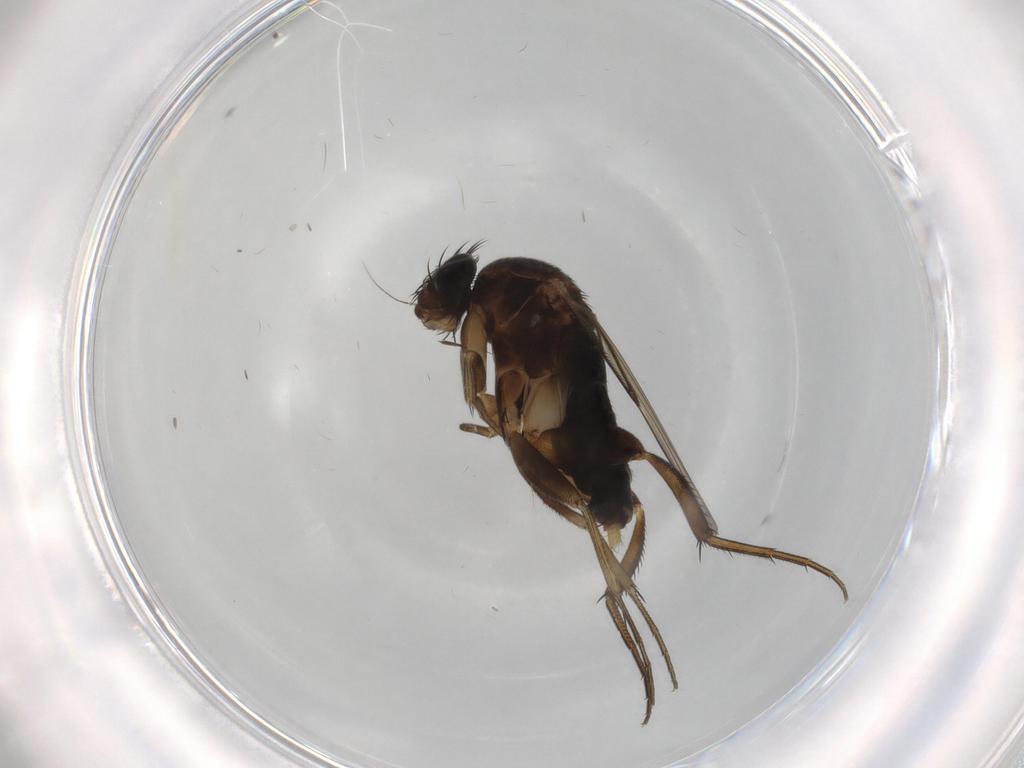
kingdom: Animalia
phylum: Arthropoda
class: Insecta
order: Diptera
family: Phoridae
